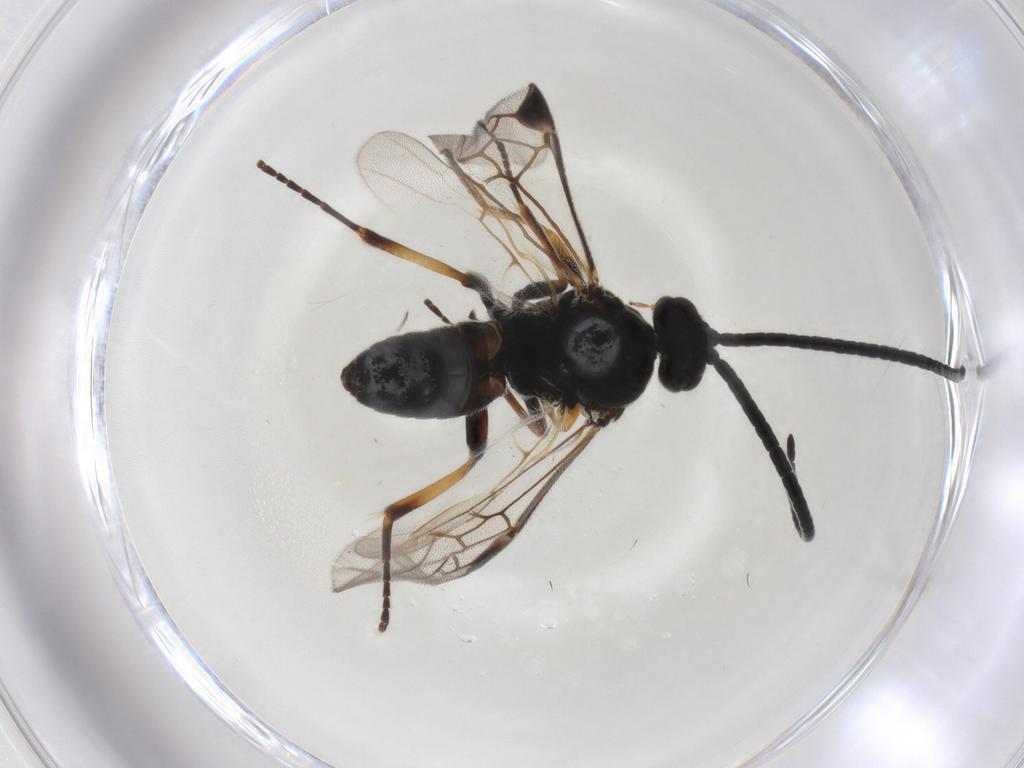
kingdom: Animalia
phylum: Arthropoda
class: Insecta
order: Hymenoptera
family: Braconidae
